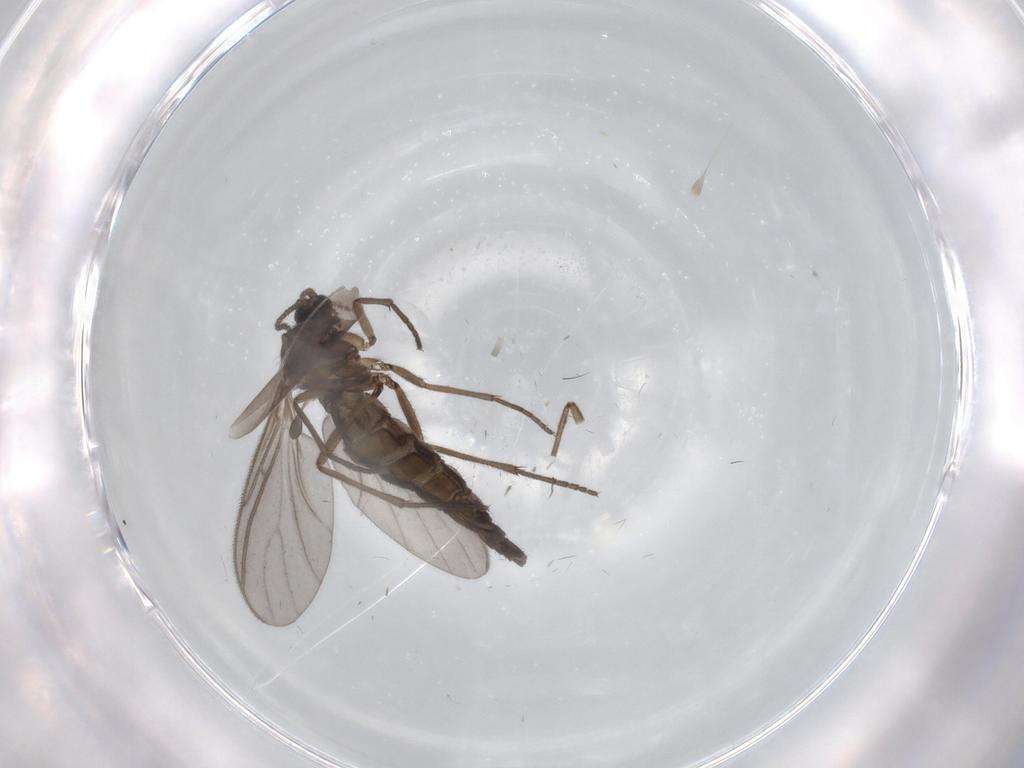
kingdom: Animalia
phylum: Arthropoda
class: Insecta
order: Diptera
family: Sciaridae
